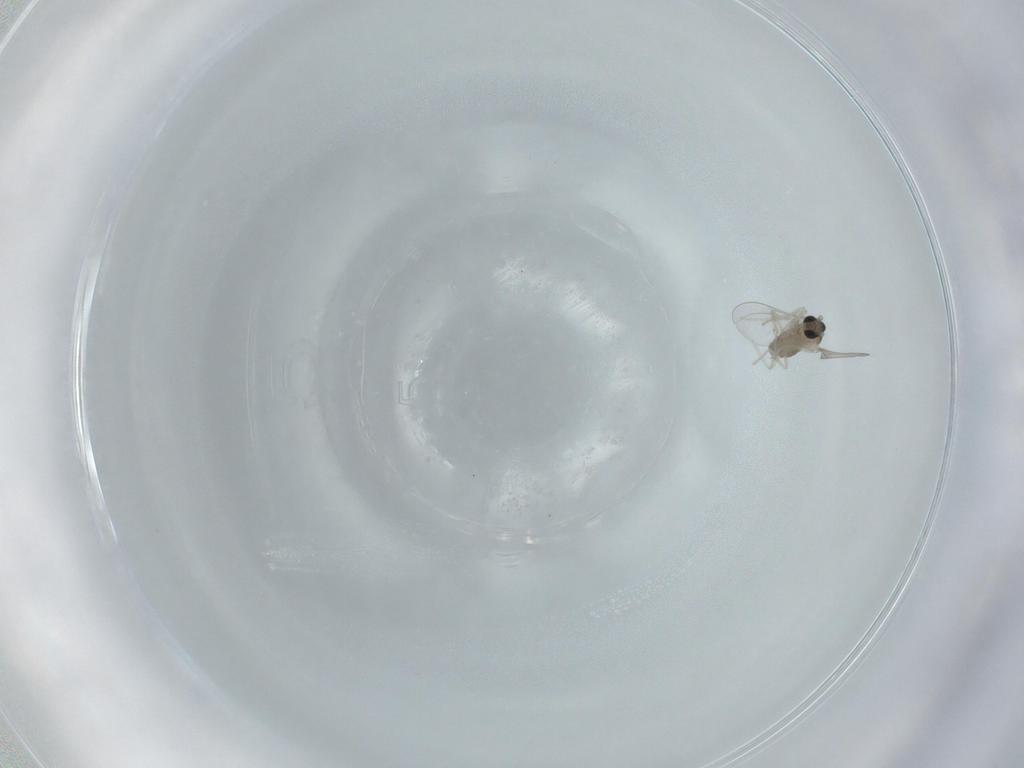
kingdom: Animalia
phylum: Arthropoda
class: Insecta
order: Diptera
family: Cecidomyiidae
